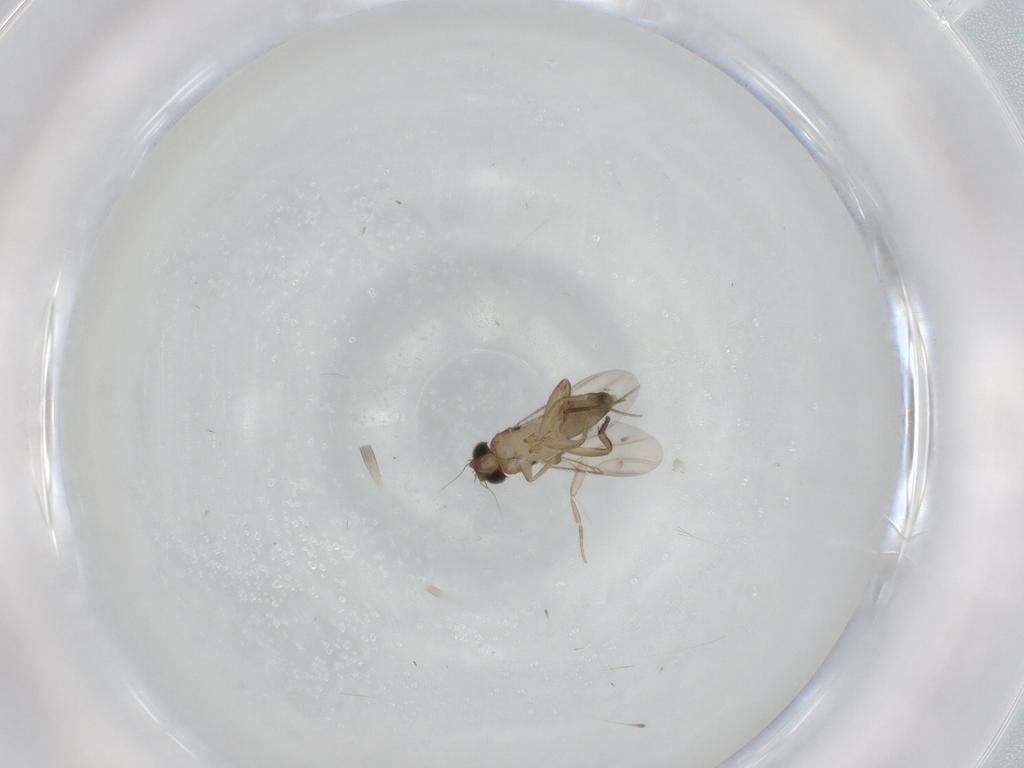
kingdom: Animalia
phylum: Arthropoda
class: Insecta
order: Diptera
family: Phoridae
